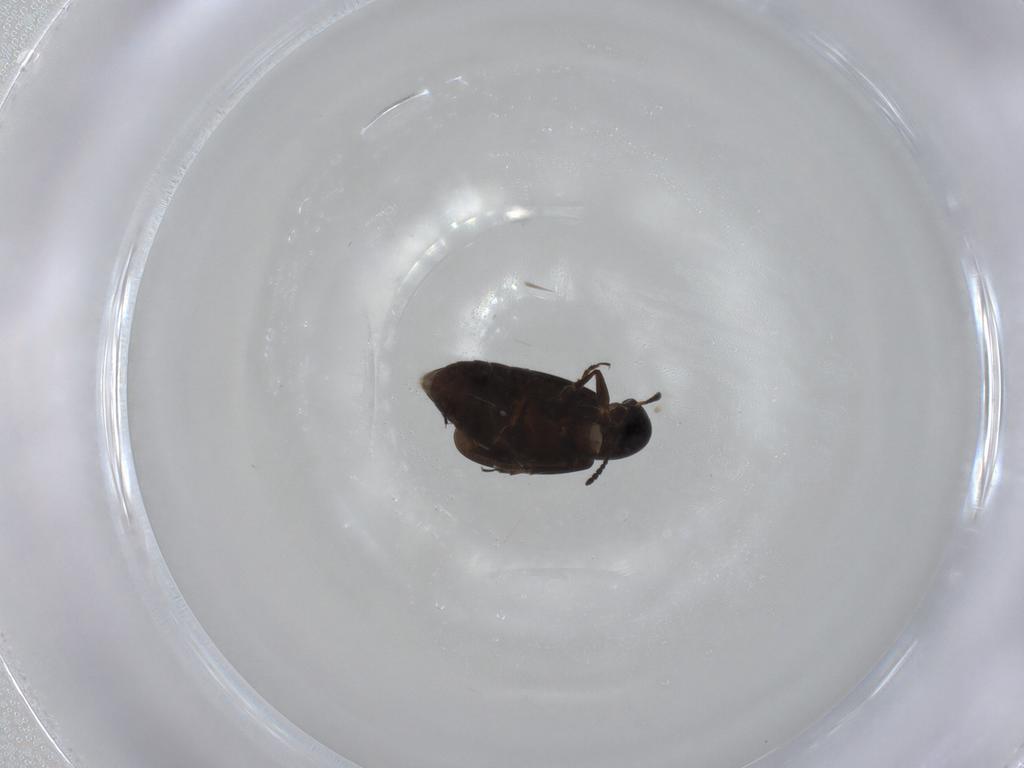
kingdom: Animalia
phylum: Arthropoda
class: Insecta
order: Coleoptera
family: Scraptiidae
